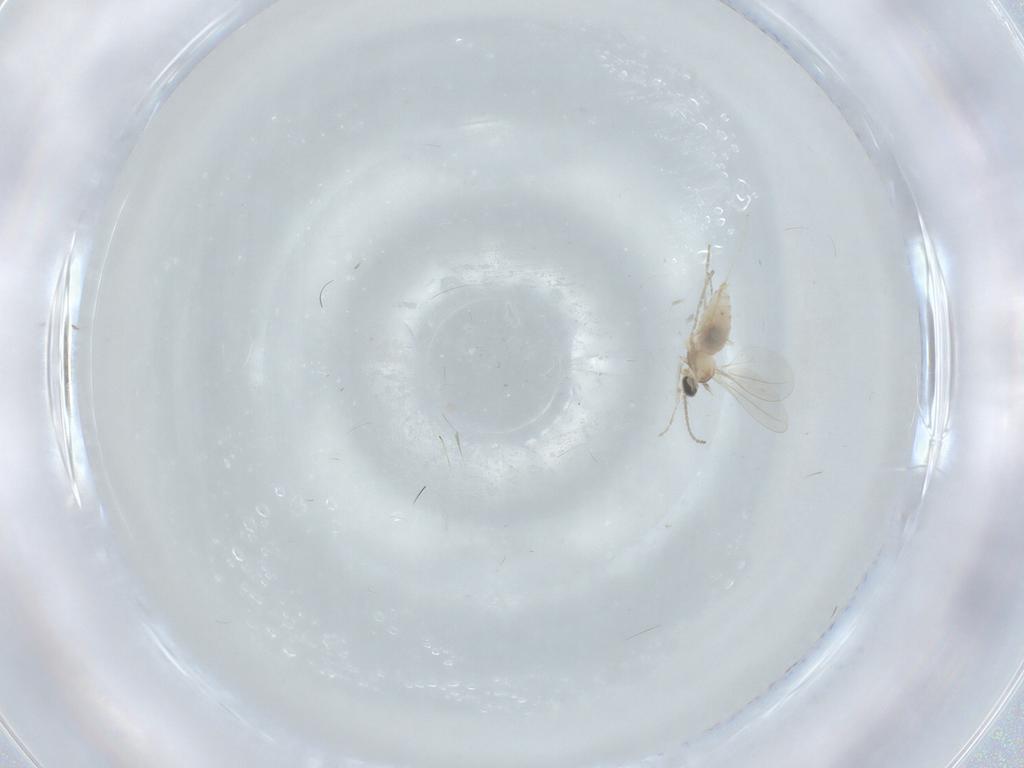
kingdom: Animalia
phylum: Arthropoda
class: Insecta
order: Diptera
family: Cecidomyiidae
